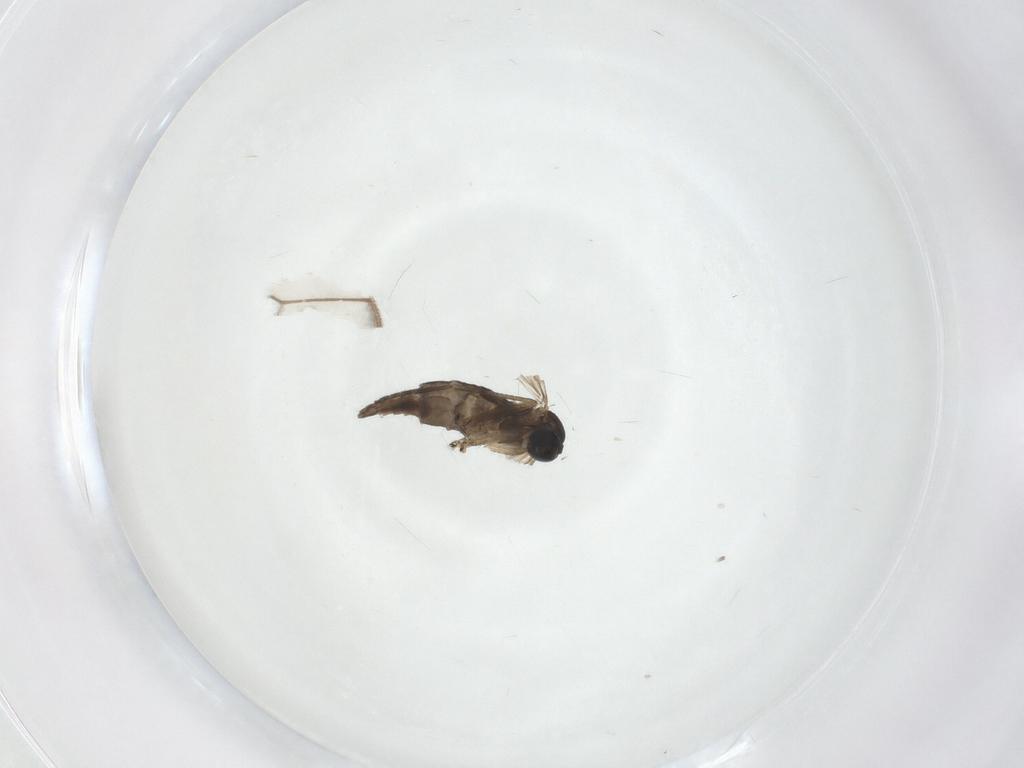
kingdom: Animalia
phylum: Arthropoda
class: Insecta
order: Diptera
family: Sciaridae
